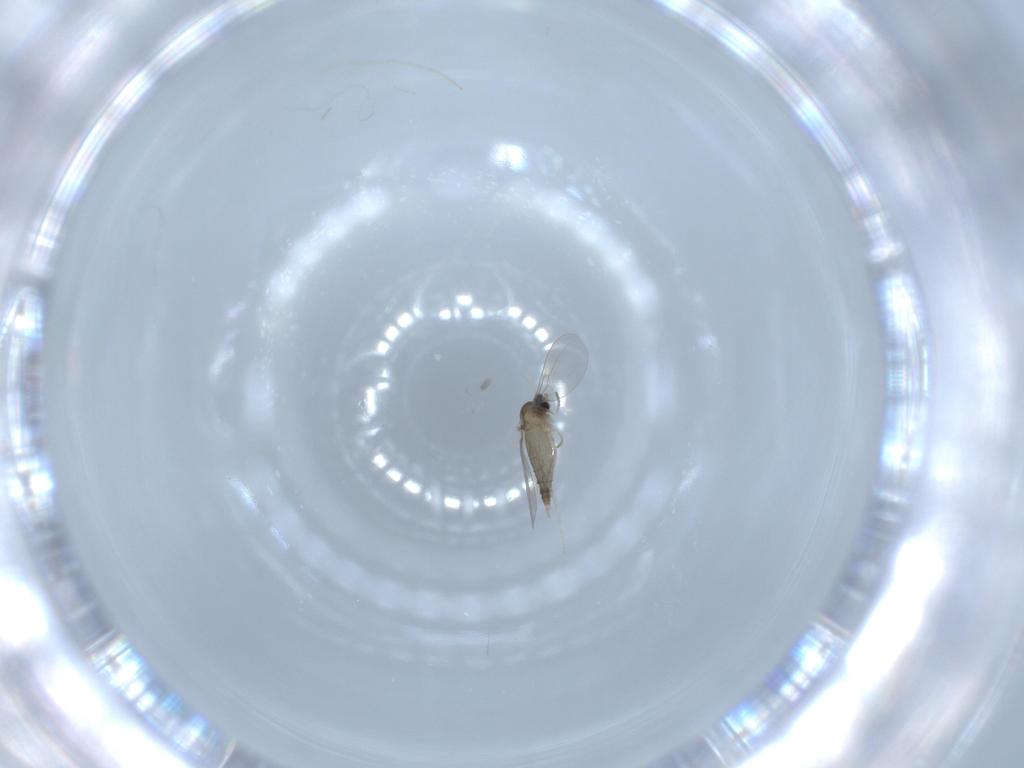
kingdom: Animalia
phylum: Arthropoda
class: Insecta
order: Diptera
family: Cecidomyiidae
